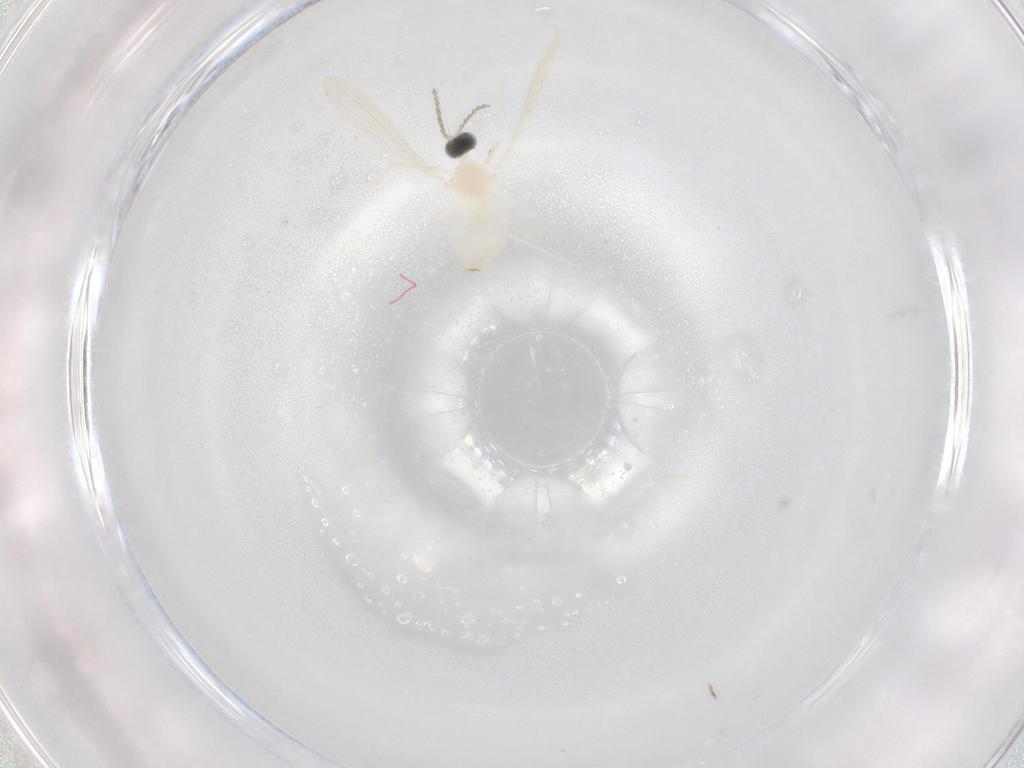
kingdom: Animalia
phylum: Arthropoda
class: Insecta
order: Diptera
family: Cecidomyiidae
